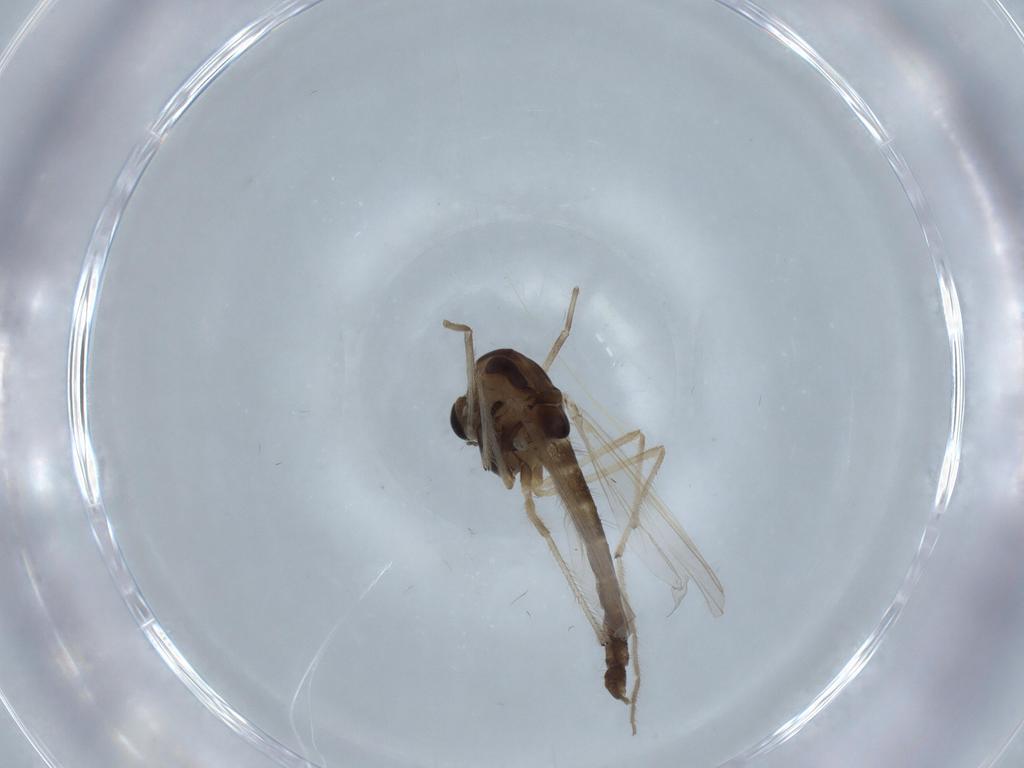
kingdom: Animalia
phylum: Arthropoda
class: Insecta
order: Diptera
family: Chironomidae
